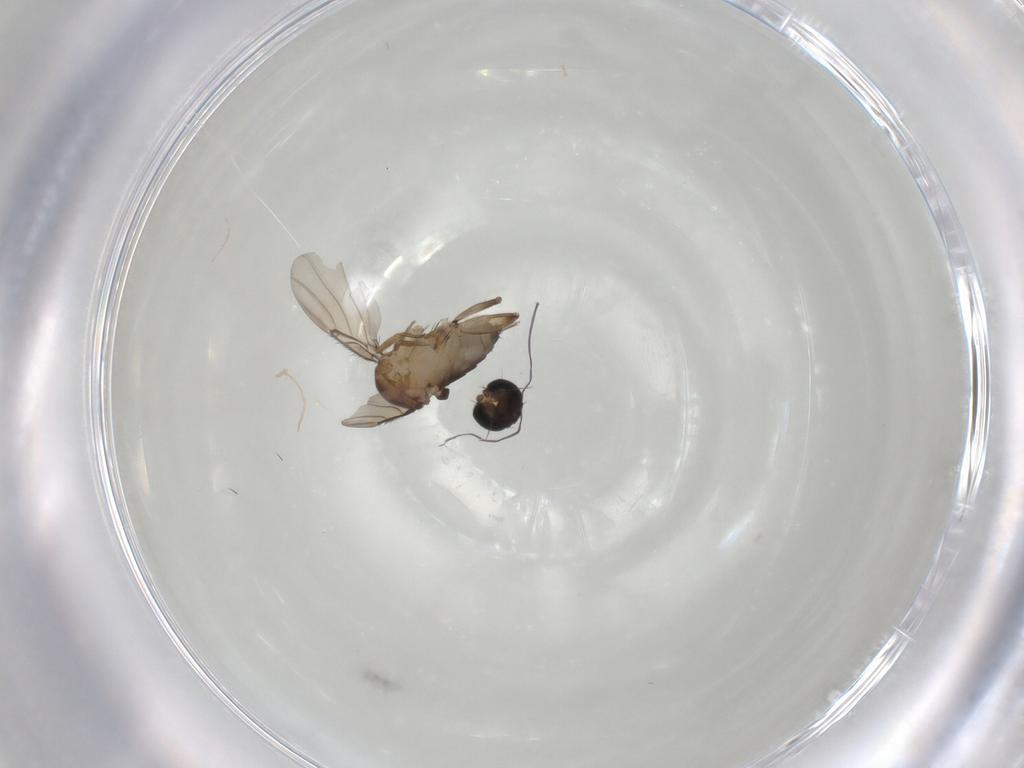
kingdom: Animalia
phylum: Arthropoda
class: Insecta
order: Diptera
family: Phoridae
